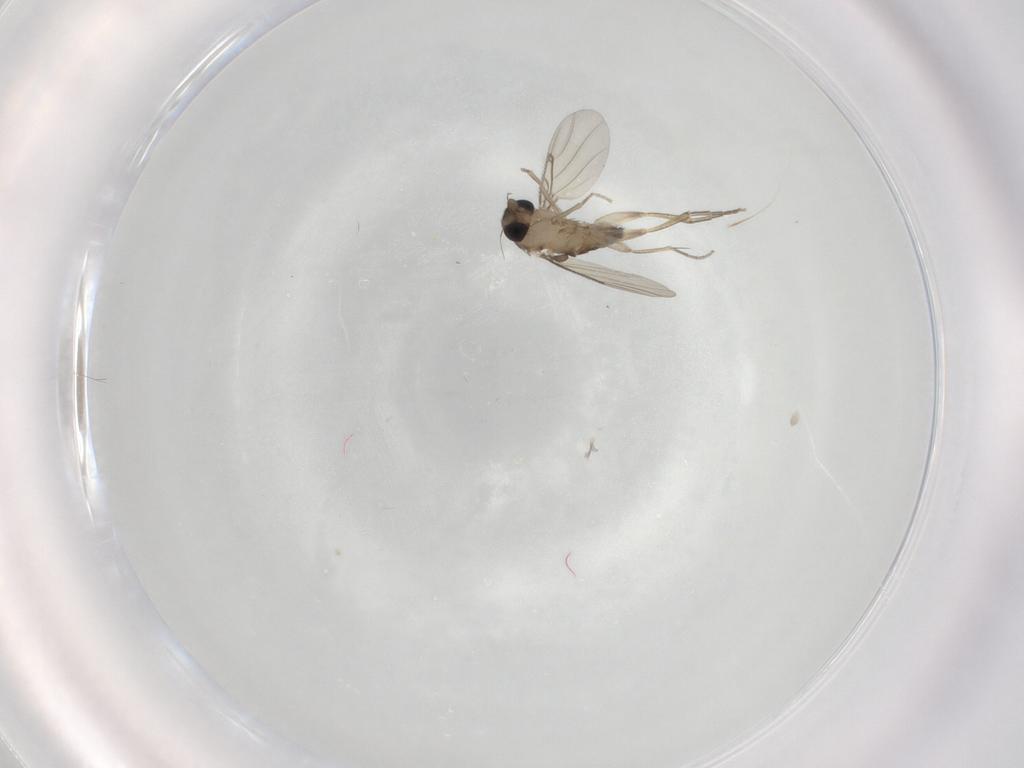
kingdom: Animalia
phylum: Arthropoda
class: Insecta
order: Diptera
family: Phoridae
